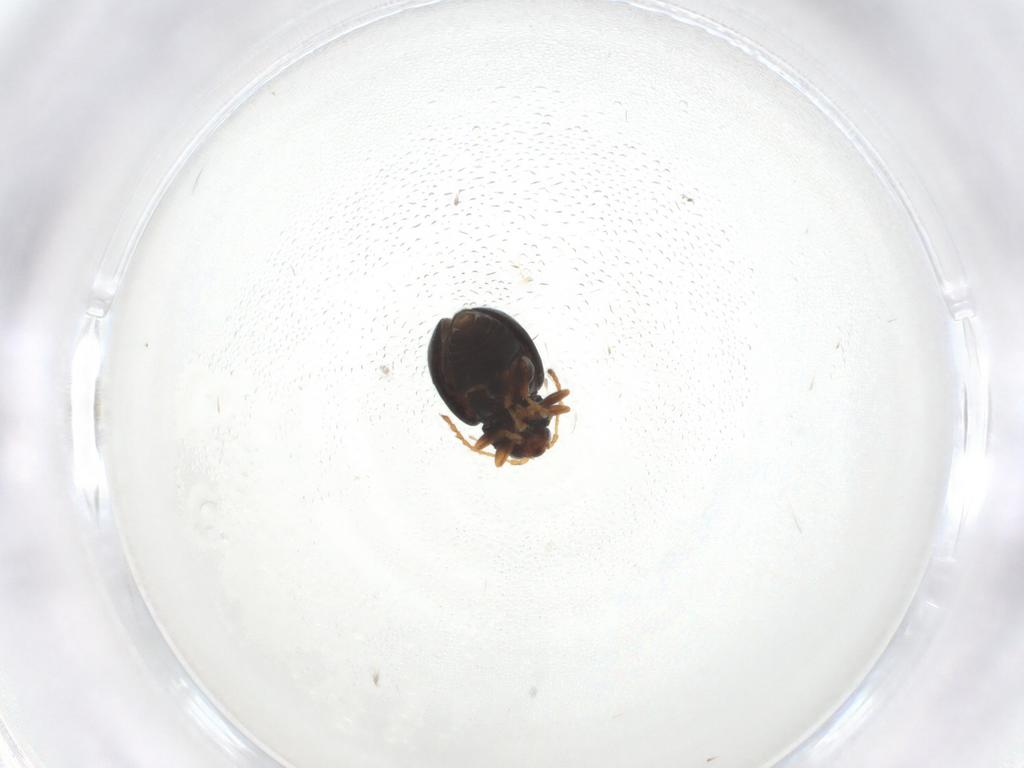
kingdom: Animalia
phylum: Arthropoda
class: Insecta
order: Coleoptera
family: Chrysomelidae
